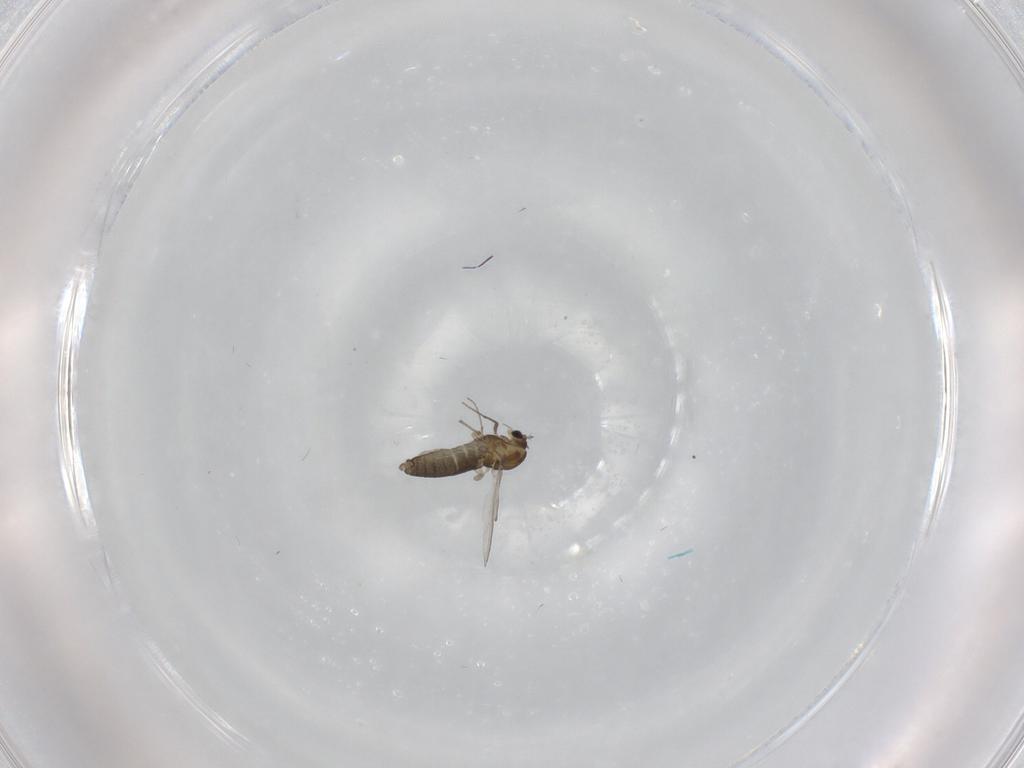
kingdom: Animalia
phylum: Arthropoda
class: Insecta
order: Diptera
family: Chironomidae
